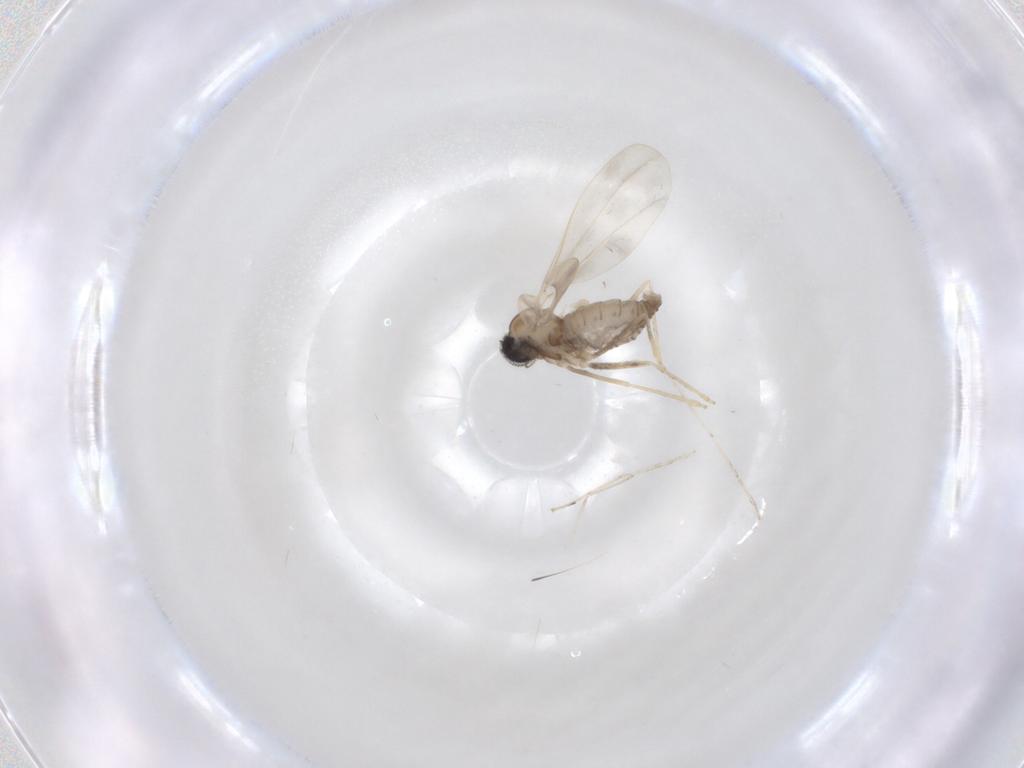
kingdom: Animalia
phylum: Arthropoda
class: Insecta
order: Diptera
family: Cecidomyiidae
